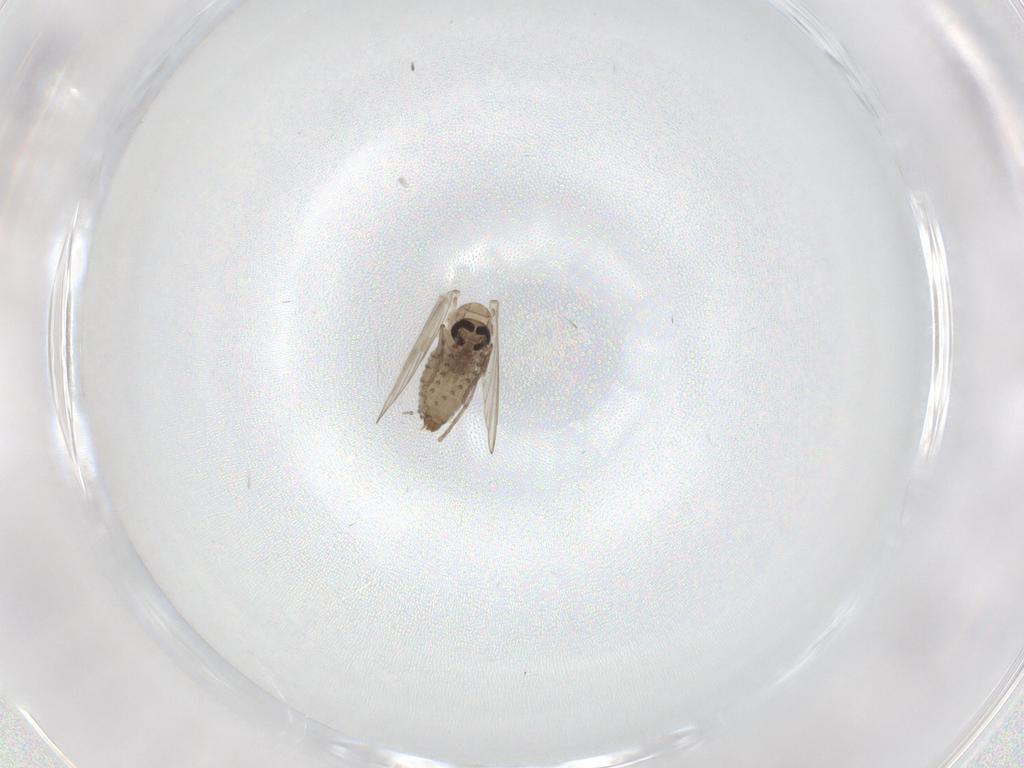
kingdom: Animalia
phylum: Arthropoda
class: Insecta
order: Diptera
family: Psychodidae
